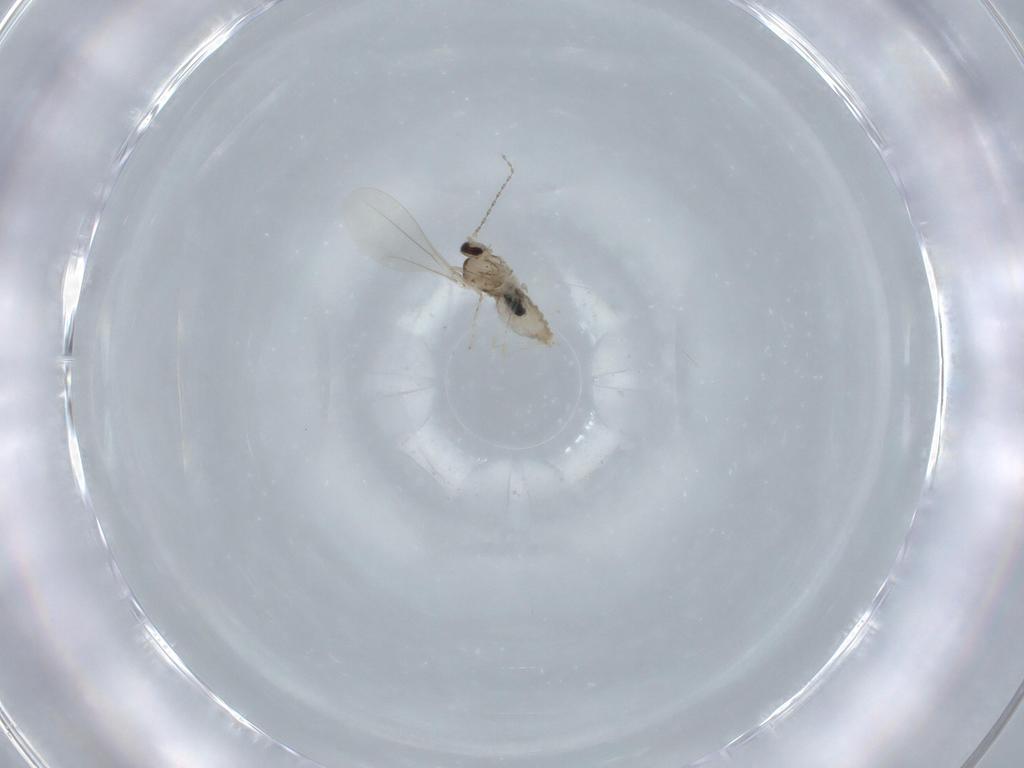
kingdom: Animalia
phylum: Arthropoda
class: Insecta
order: Diptera
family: Cecidomyiidae
